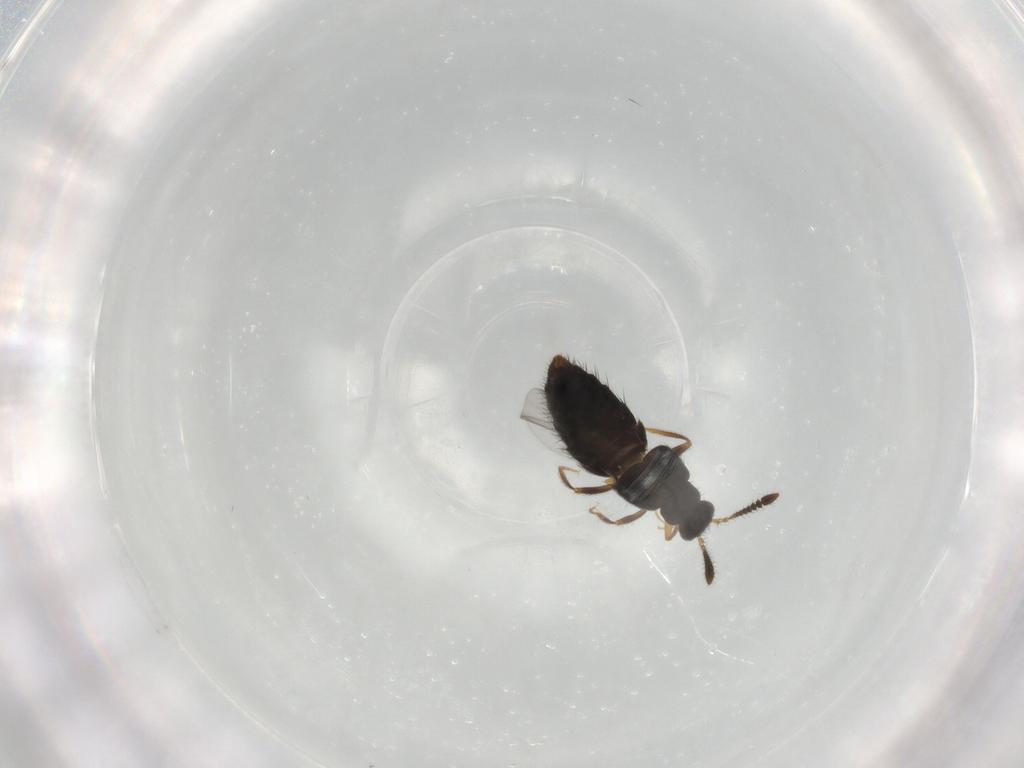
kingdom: Animalia
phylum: Arthropoda
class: Insecta
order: Coleoptera
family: Staphylinidae
